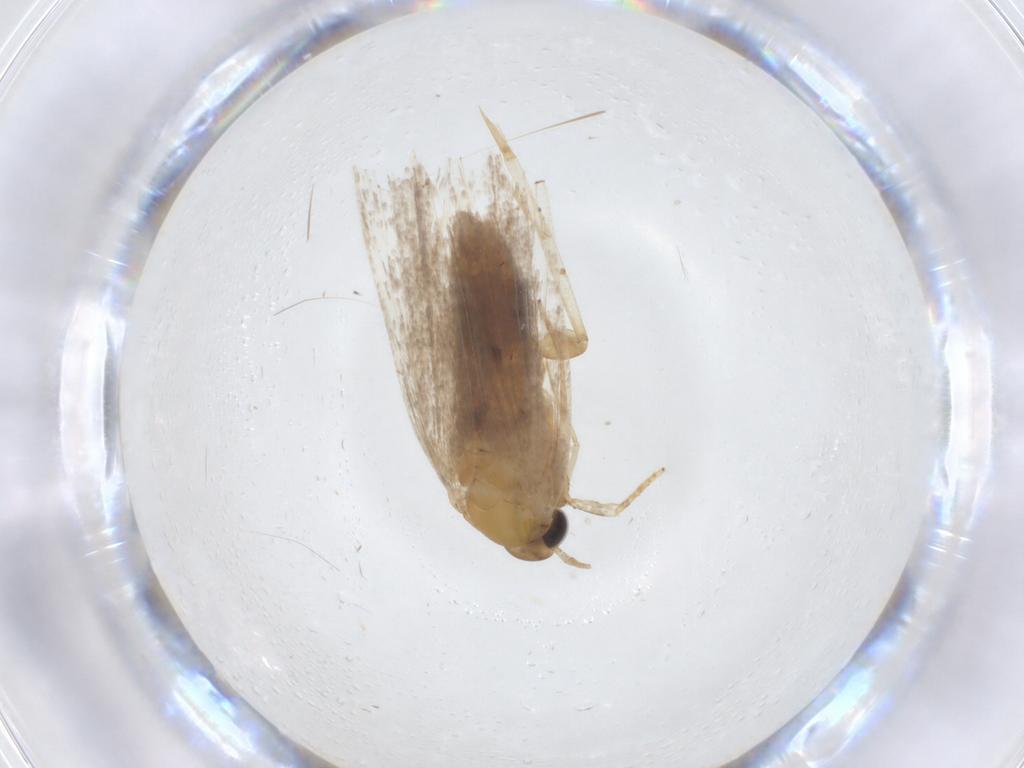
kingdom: Animalia
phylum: Arthropoda
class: Insecta
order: Lepidoptera
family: Oecophoridae
